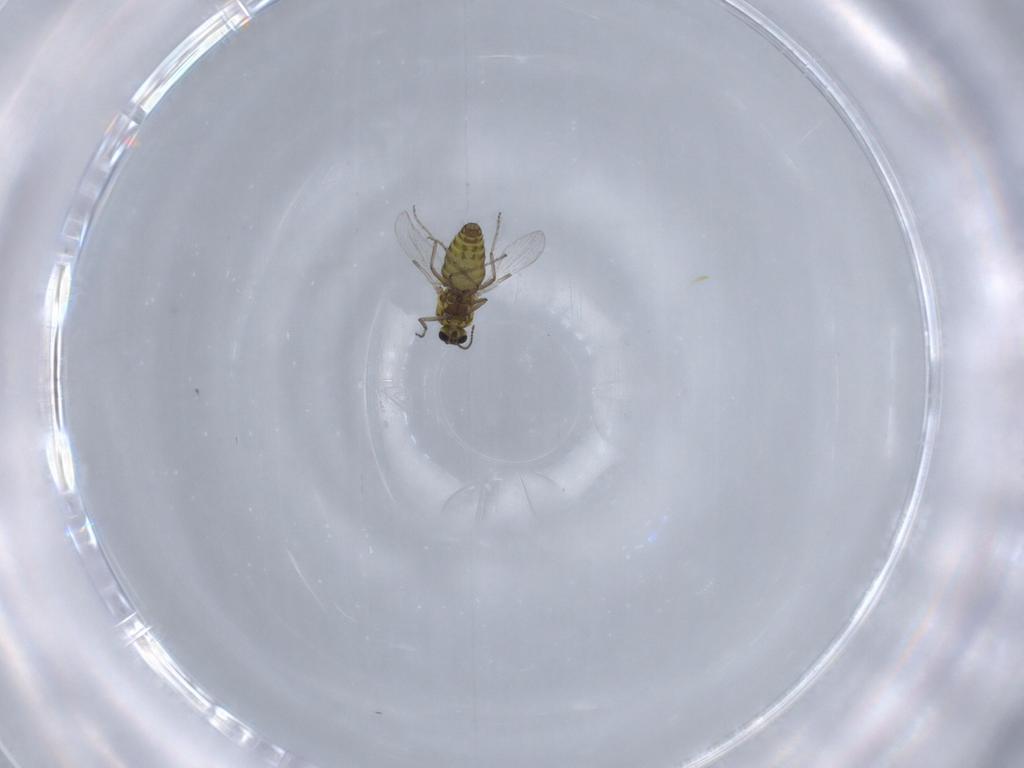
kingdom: Animalia
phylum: Arthropoda
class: Insecta
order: Diptera
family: Ceratopogonidae
